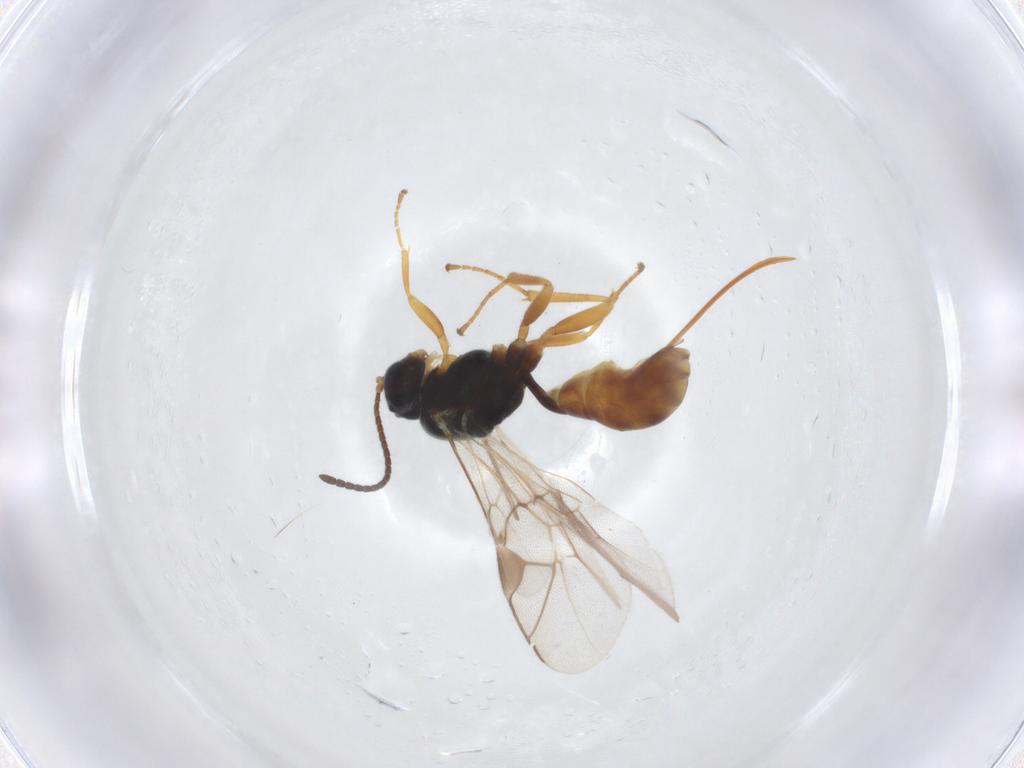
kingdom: Animalia
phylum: Arthropoda
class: Insecta
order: Hymenoptera
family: Ichneumonidae
